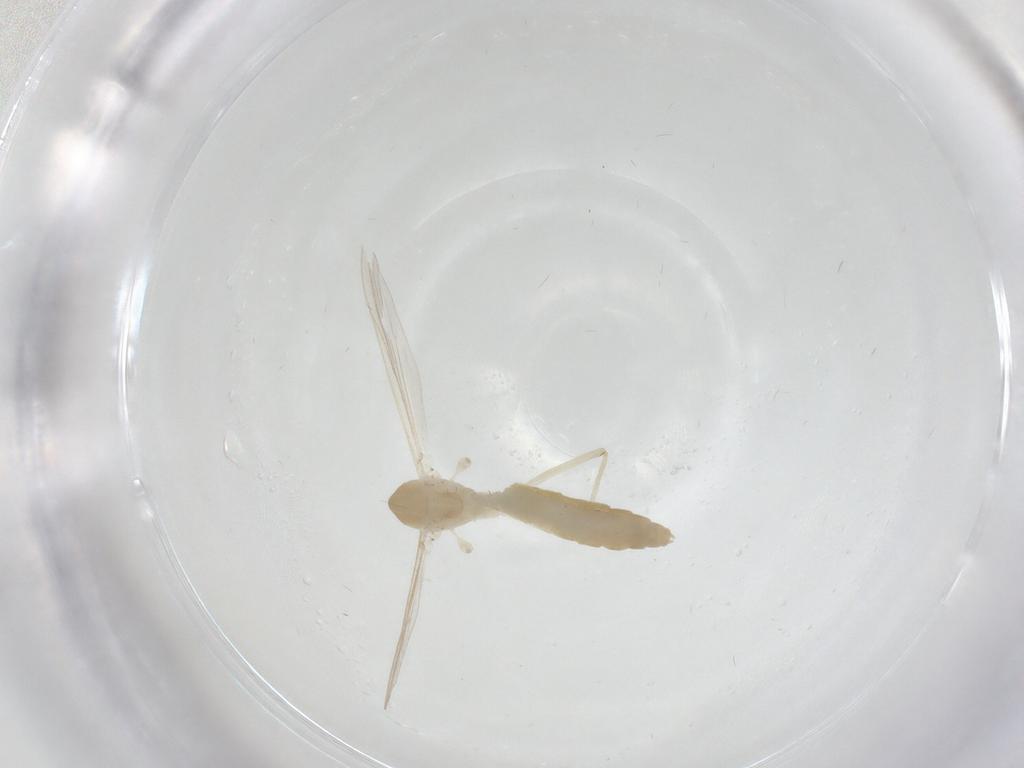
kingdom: Animalia
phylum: Arthropoda
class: Insecta
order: Diptera
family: Chironomidae
